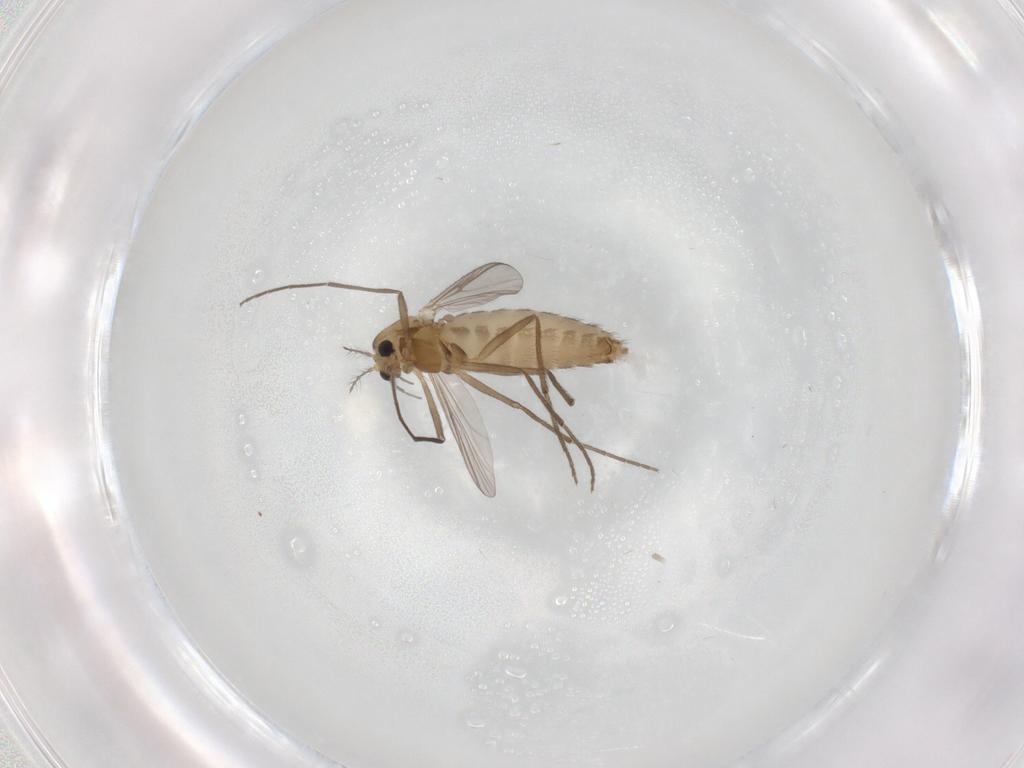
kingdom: Animalia
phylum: Arthropoda
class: Insecta
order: Diptera
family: Chironomidae
